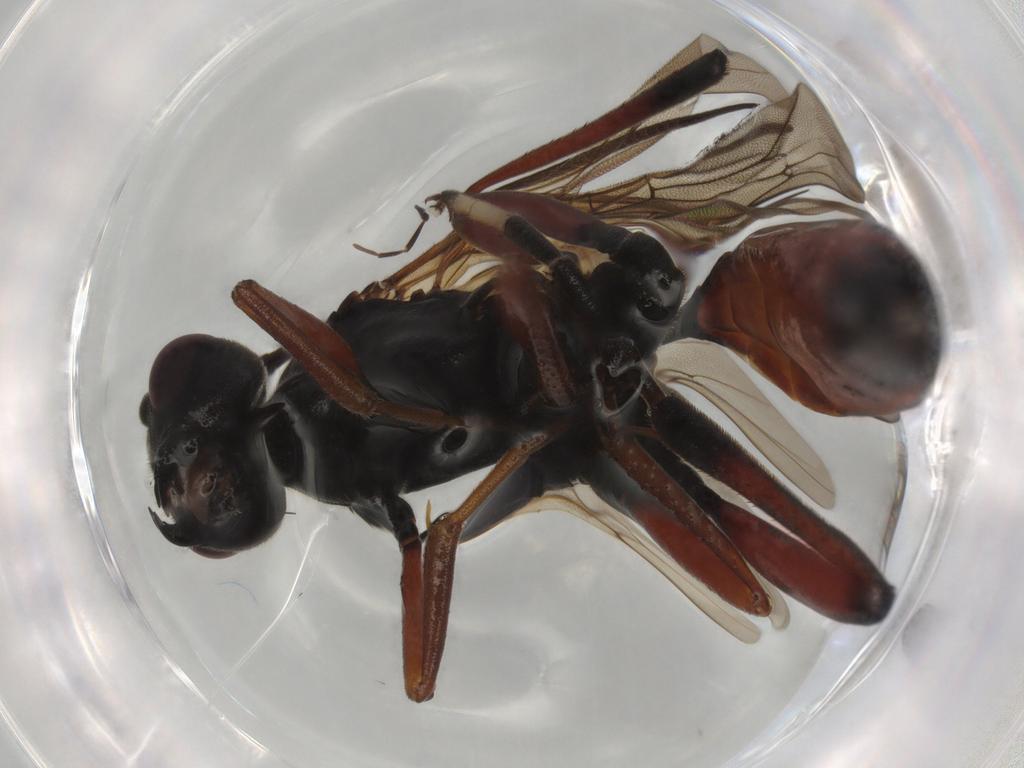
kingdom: Animalia
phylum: Arthropoda
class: Insecta
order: Hymenoptera
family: Ichneumonidae
